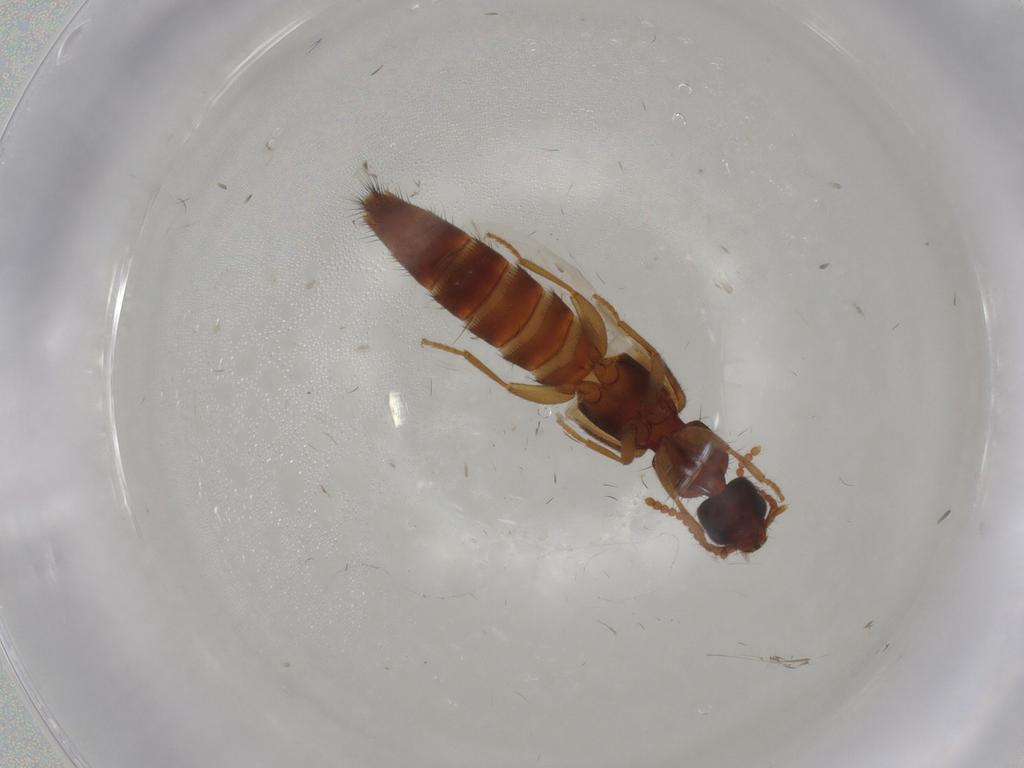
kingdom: Animalia
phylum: Arthropoda
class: Insecta
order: Coleoptera
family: Staphylinidae
